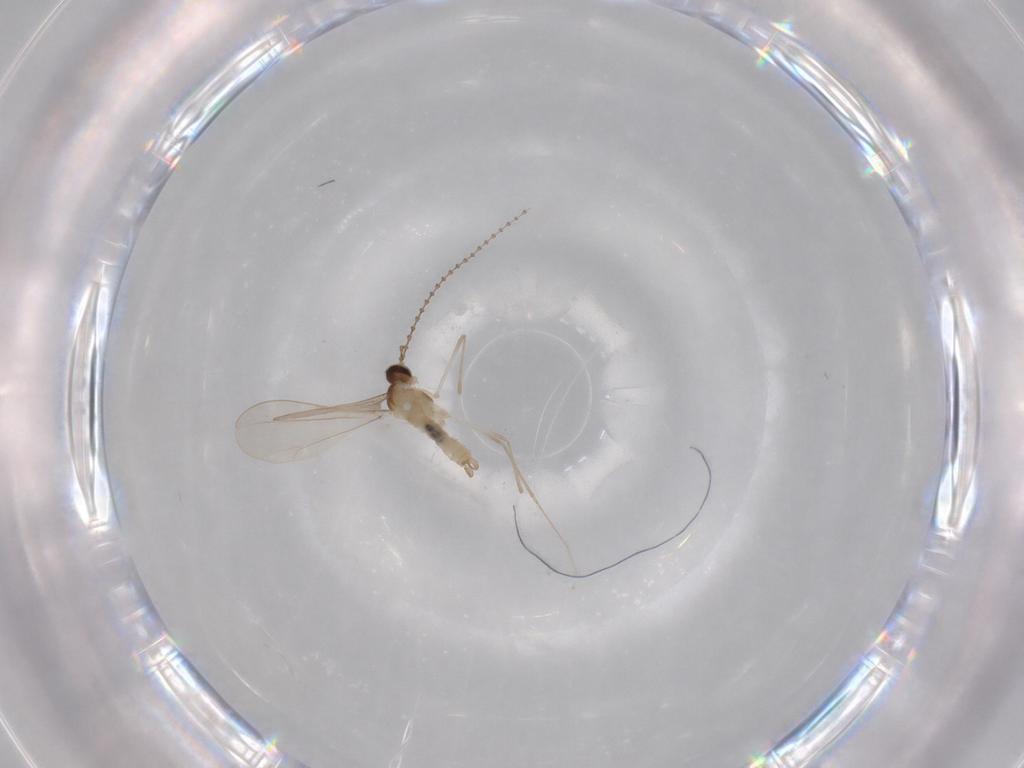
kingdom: Animalia
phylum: Arthropoda
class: Insecta
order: Diptera
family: Cecidomyiidae
